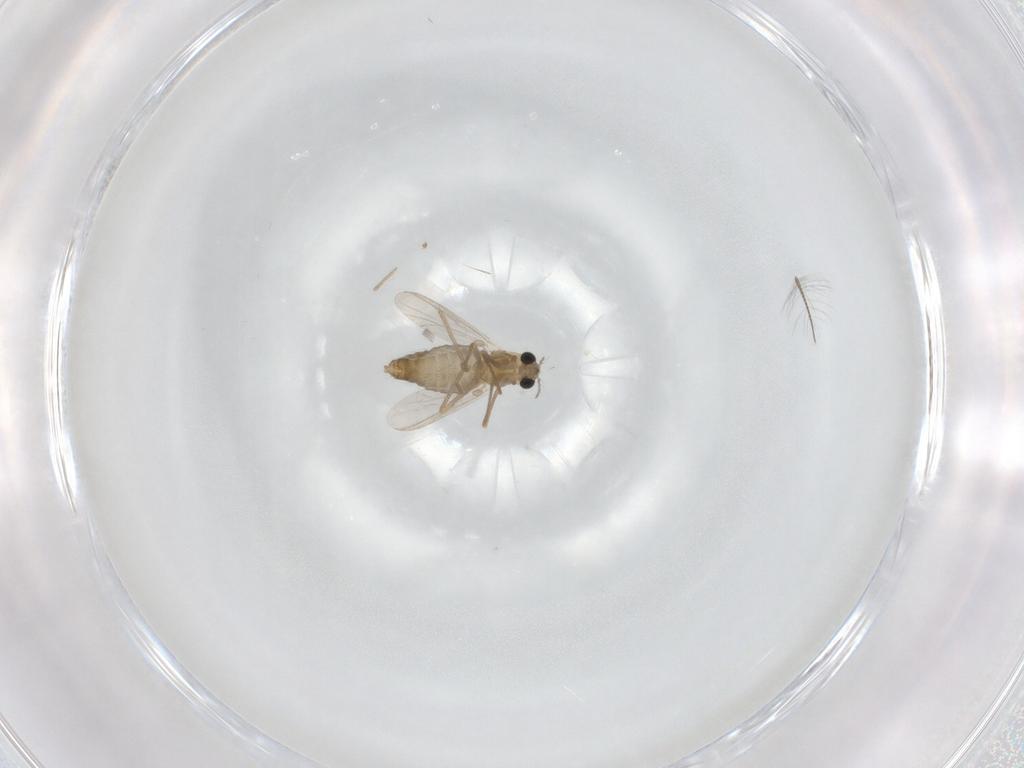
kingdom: Animalia
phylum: Arthropoda
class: Insecta
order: Diptera
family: Chironomidae
